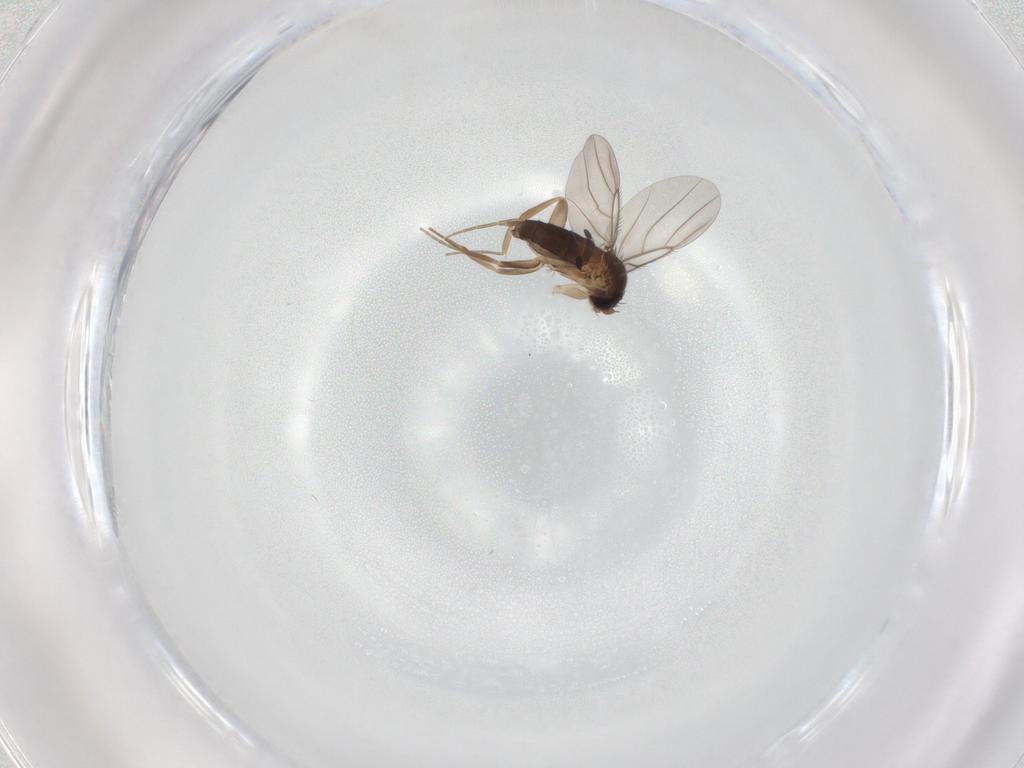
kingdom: Animalia
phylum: Arthropoda
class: Insecta
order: Diptera
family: Phoridae
